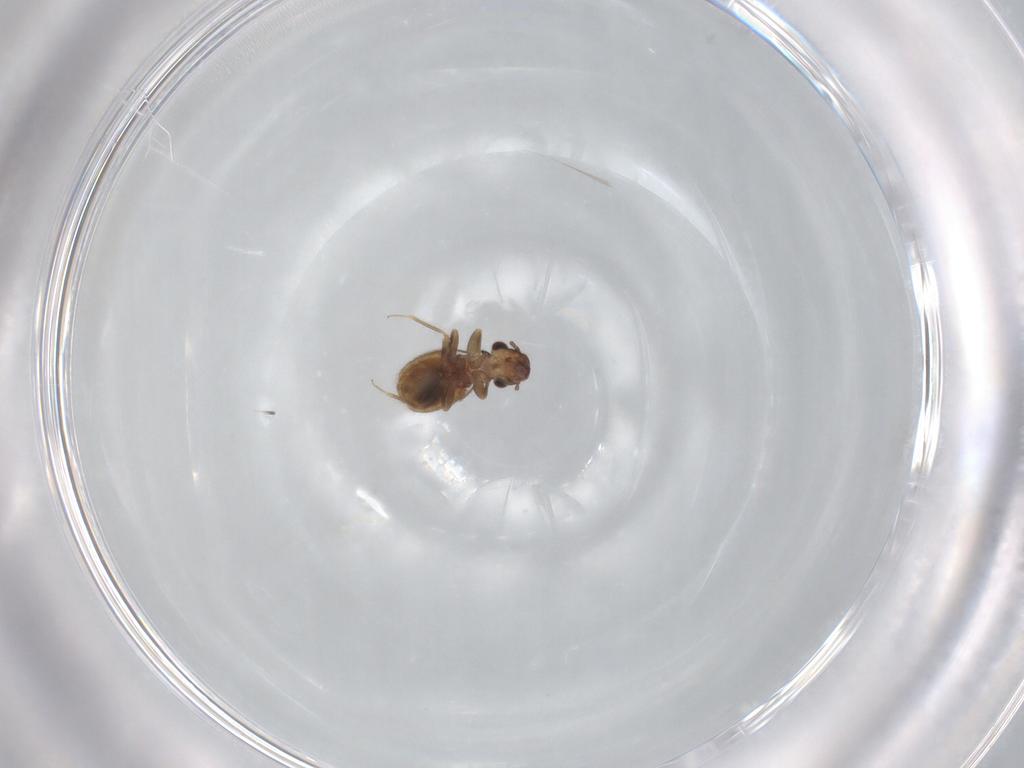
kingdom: Animalia
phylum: Arthropoda
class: Insecta
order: Psocodea
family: Trogiidae
